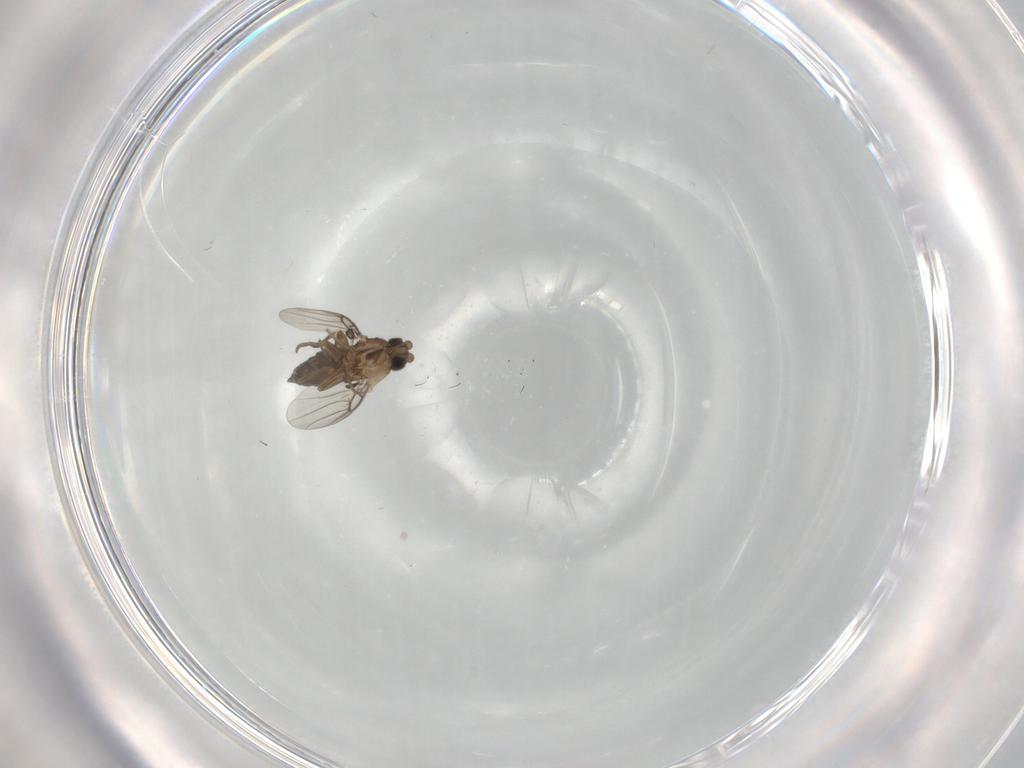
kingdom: Animalia
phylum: Arthropoda
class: Insecta
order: Diptera
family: Phoridae
